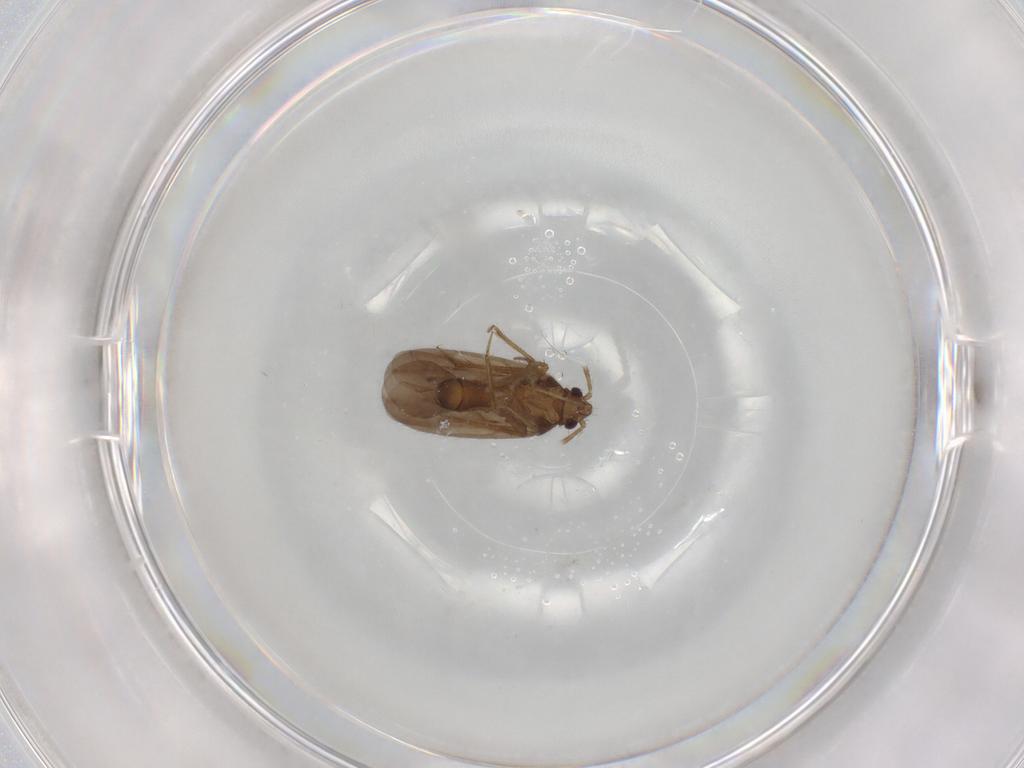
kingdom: Animalia
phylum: Arthropoda
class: Insecta
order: Hemiptera
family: Ceratocombidae
